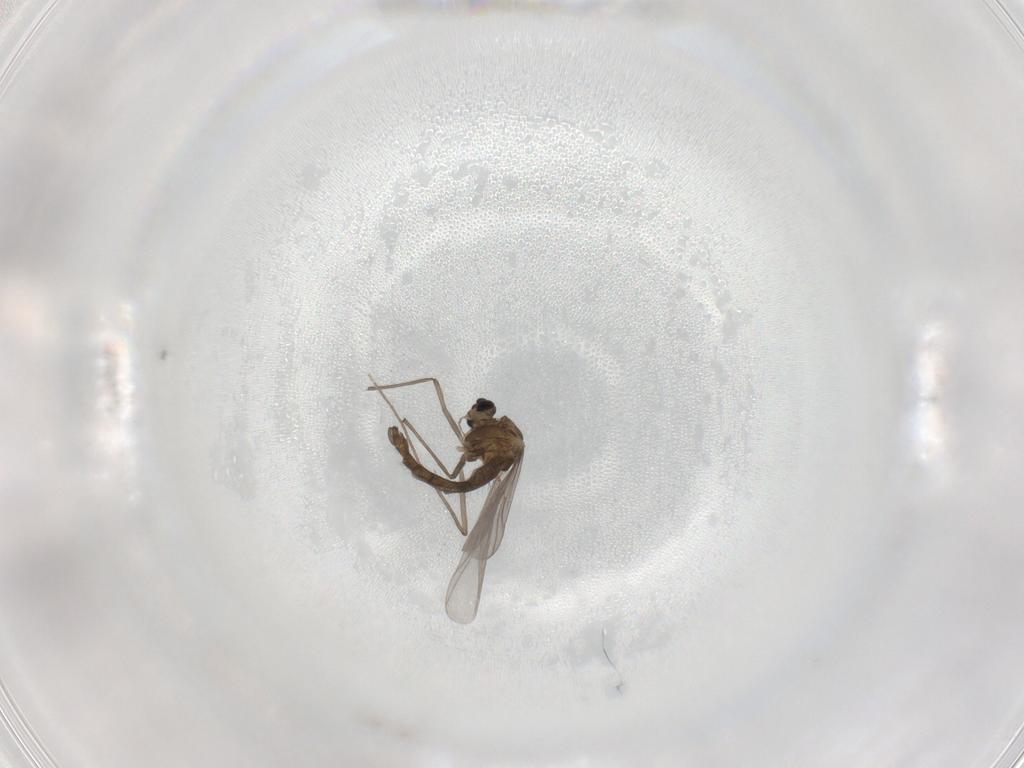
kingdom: Animalia
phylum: Arthropoda
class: Insecta
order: Diptera
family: Chironomidae
